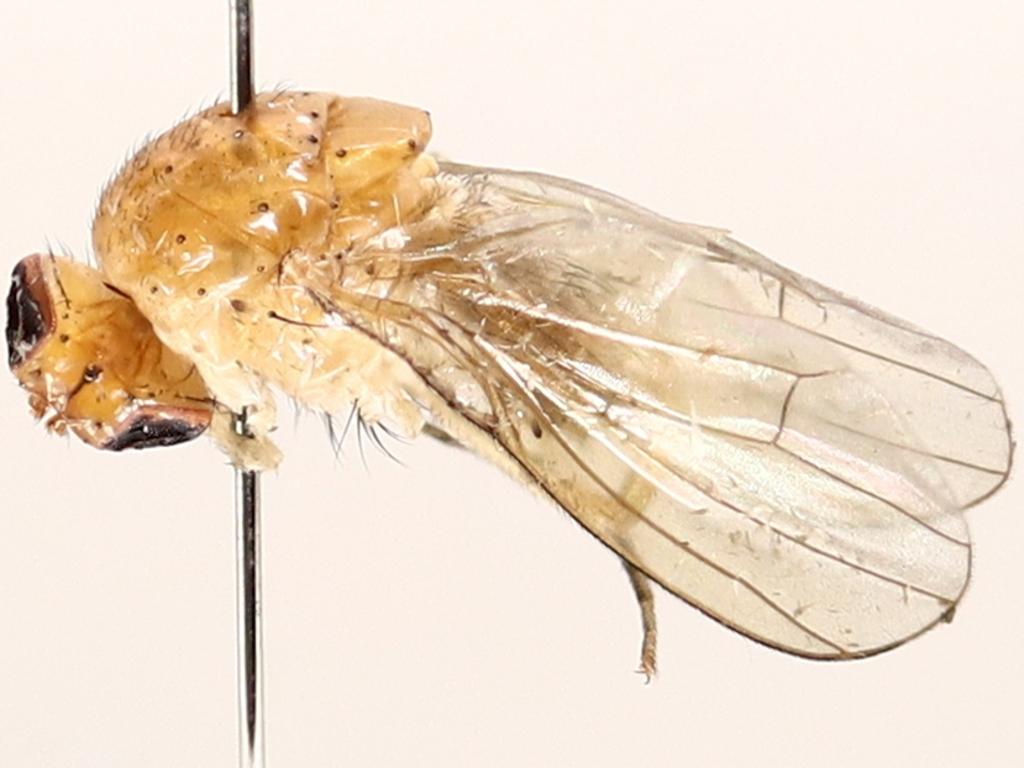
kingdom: Animalia
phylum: Arthropoda
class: Insecta
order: Diptera
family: Ceratopogonidae
